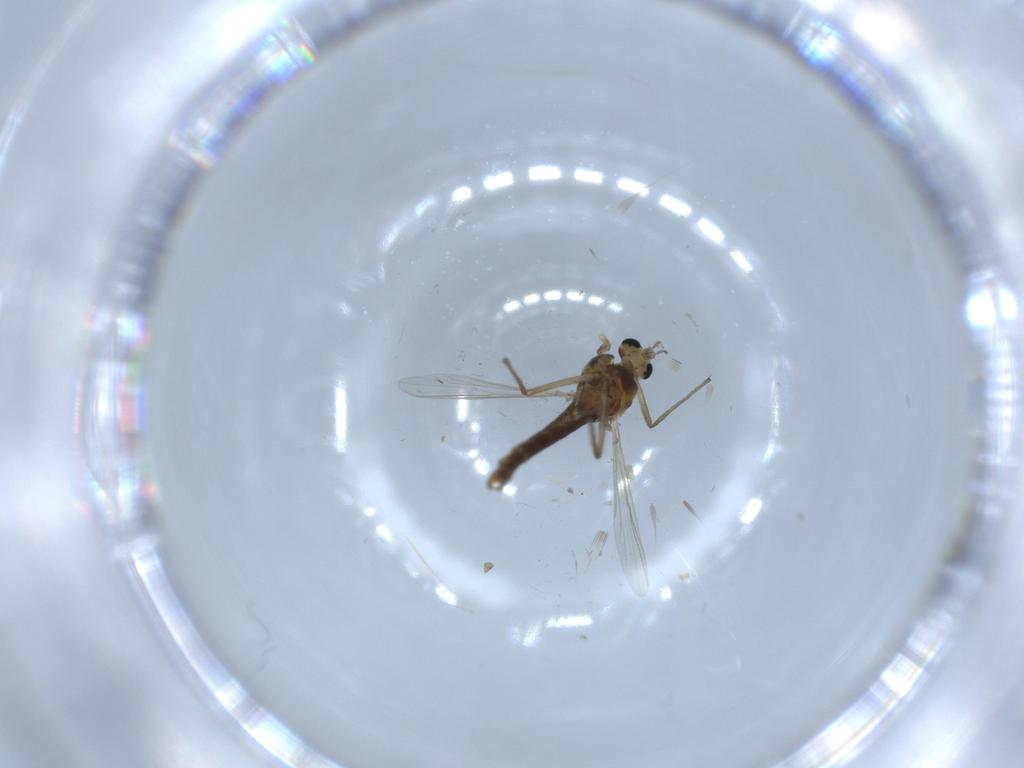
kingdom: Animalia
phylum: Arthropoda
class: Insecta
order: Diptera
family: Chironomidae
